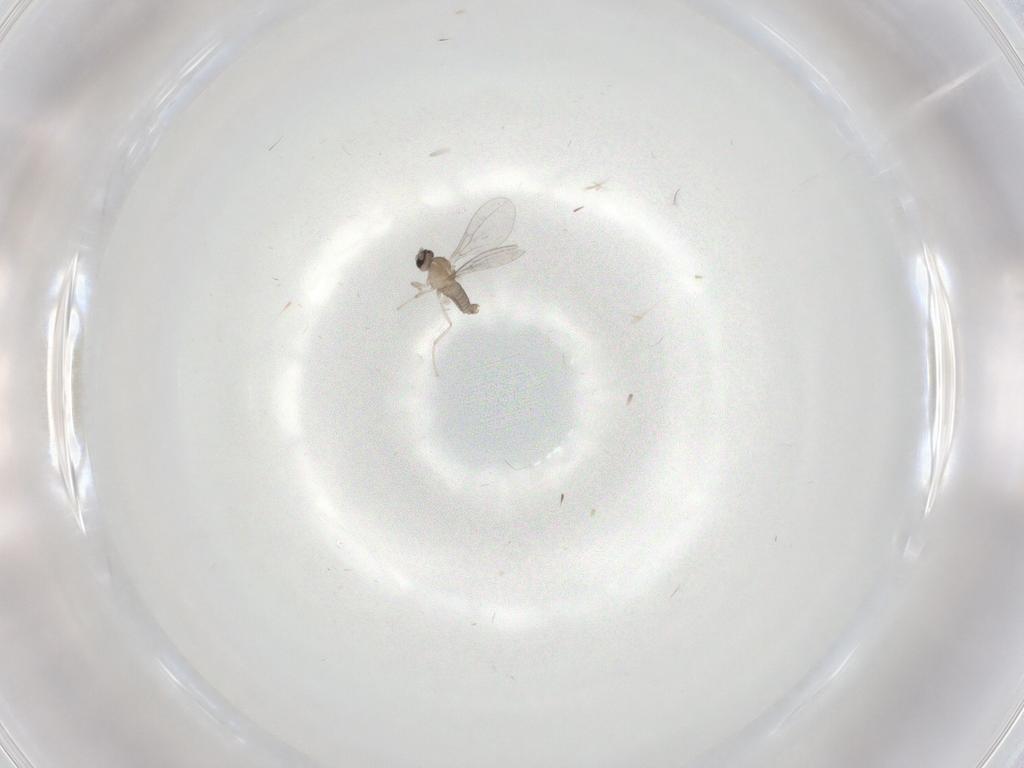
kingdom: Animalia
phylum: Arthropoda
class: Insecta
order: Diptera
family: Cecidomyiidae
